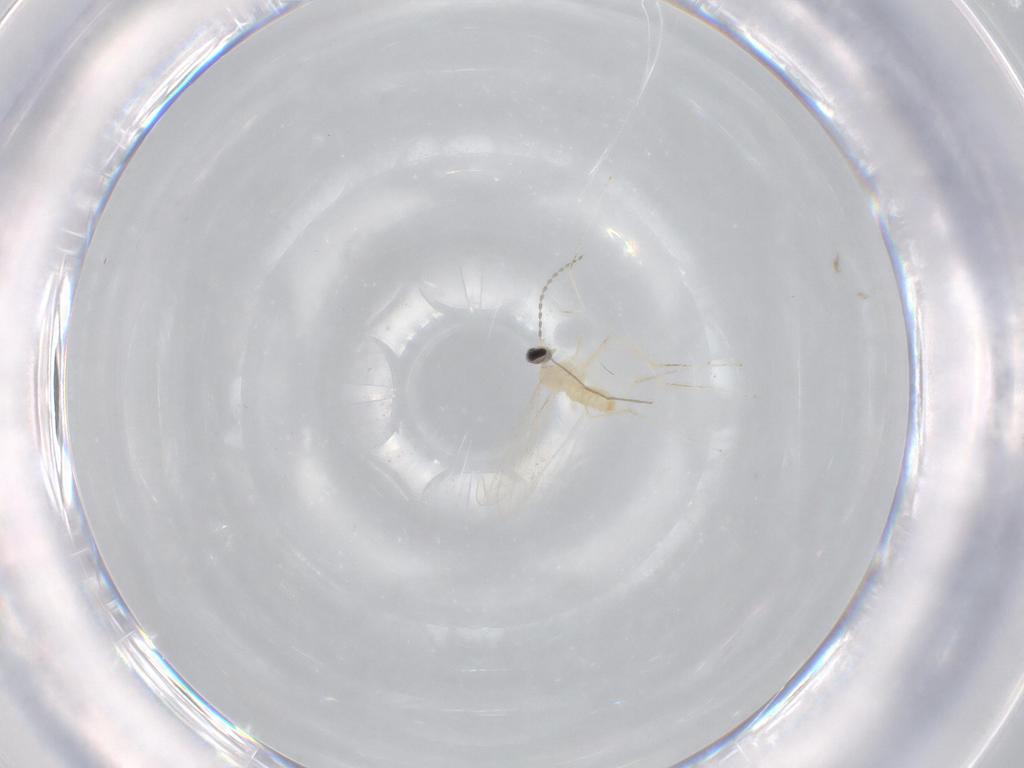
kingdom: Animalia
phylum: Arthropoda
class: Insecta
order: Diptera
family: Cecidomyiidae
